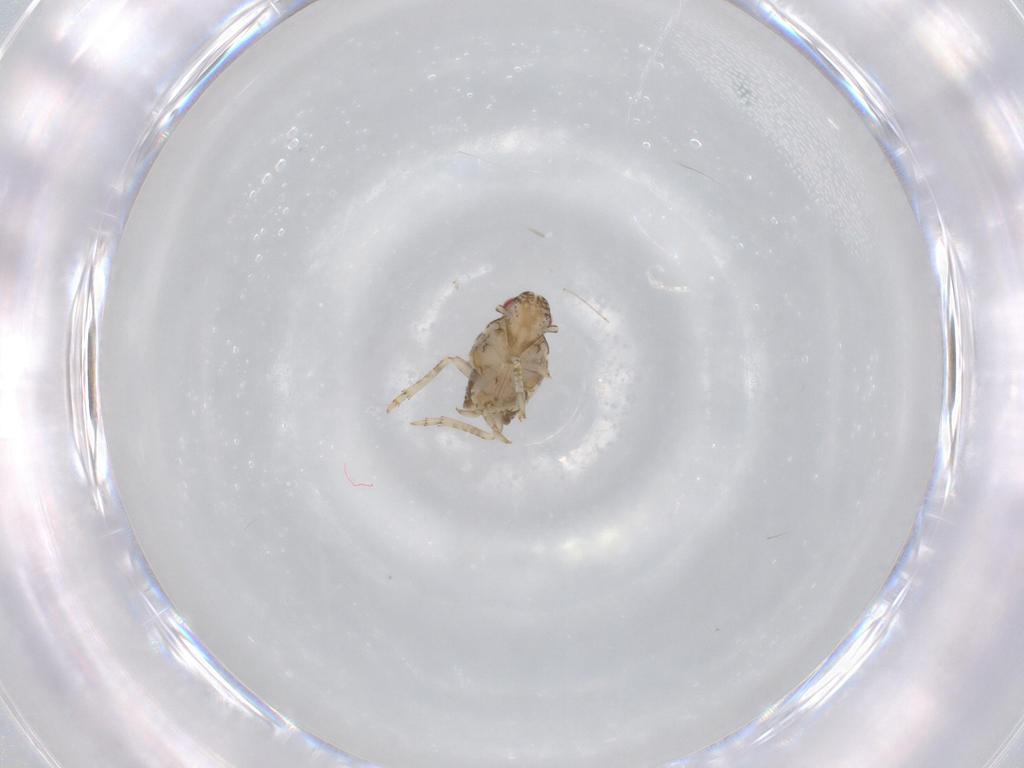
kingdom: Animalia
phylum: Arthropoda
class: Insecta
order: Hemiptera
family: Flatidae
